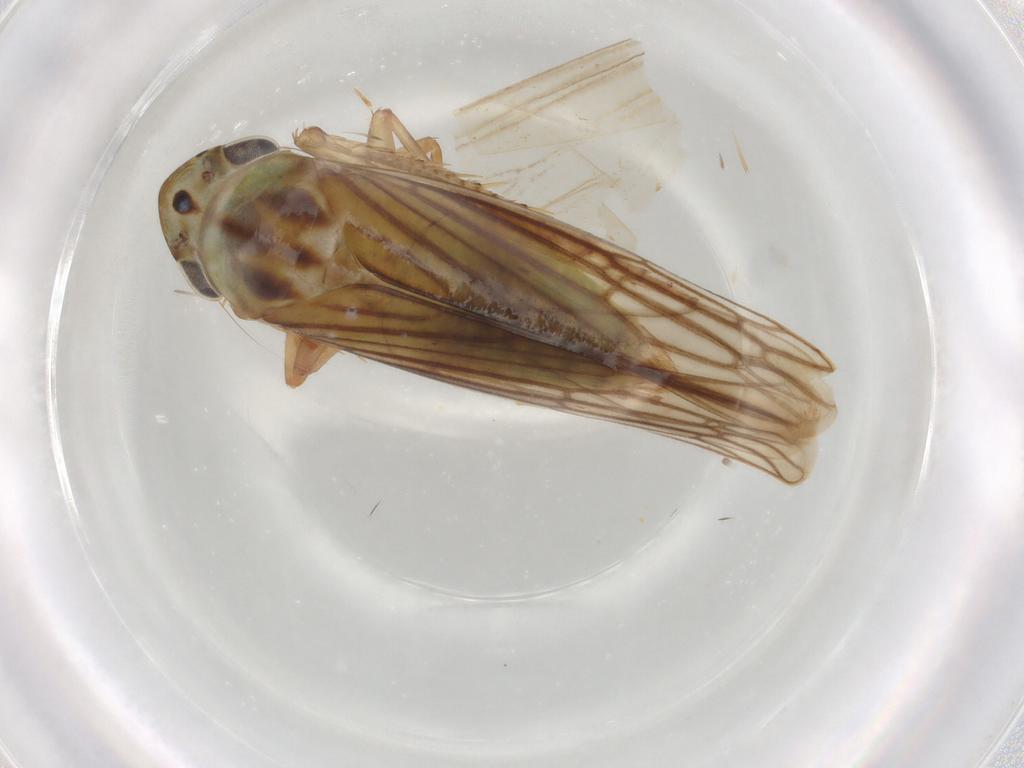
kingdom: Animalia
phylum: Arthropoda
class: Insecta
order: Hemiptera
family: Cicadellidae
